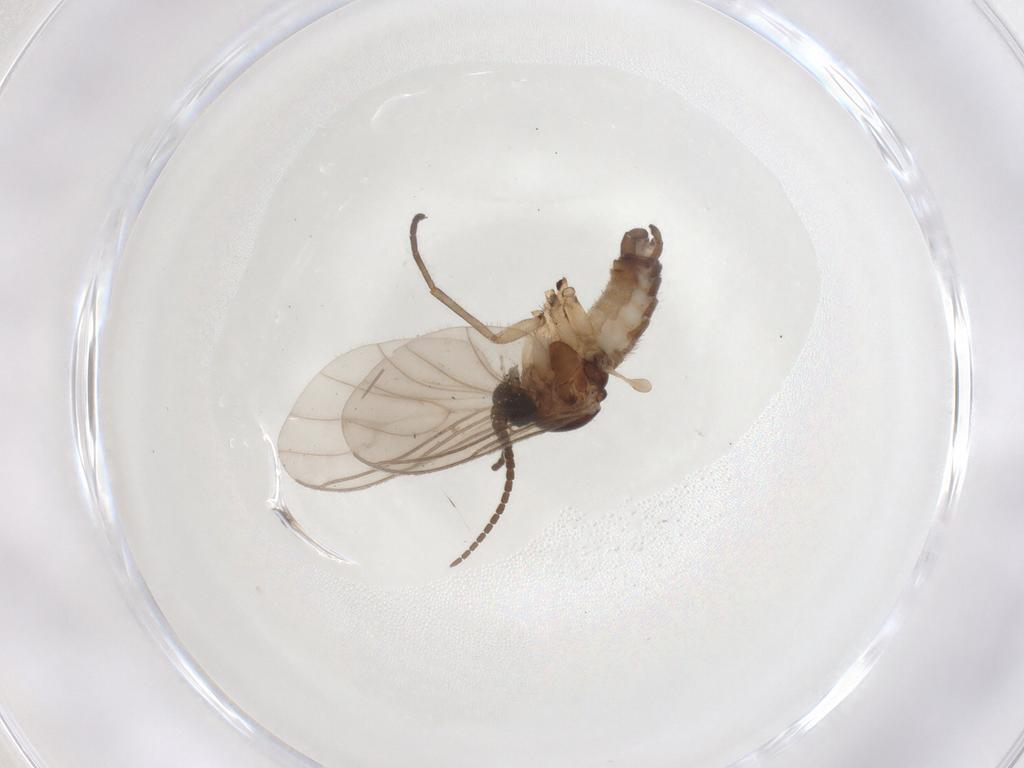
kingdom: Animalia
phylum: Arthropoda
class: Insecta
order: Diptera
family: Sciaridae
